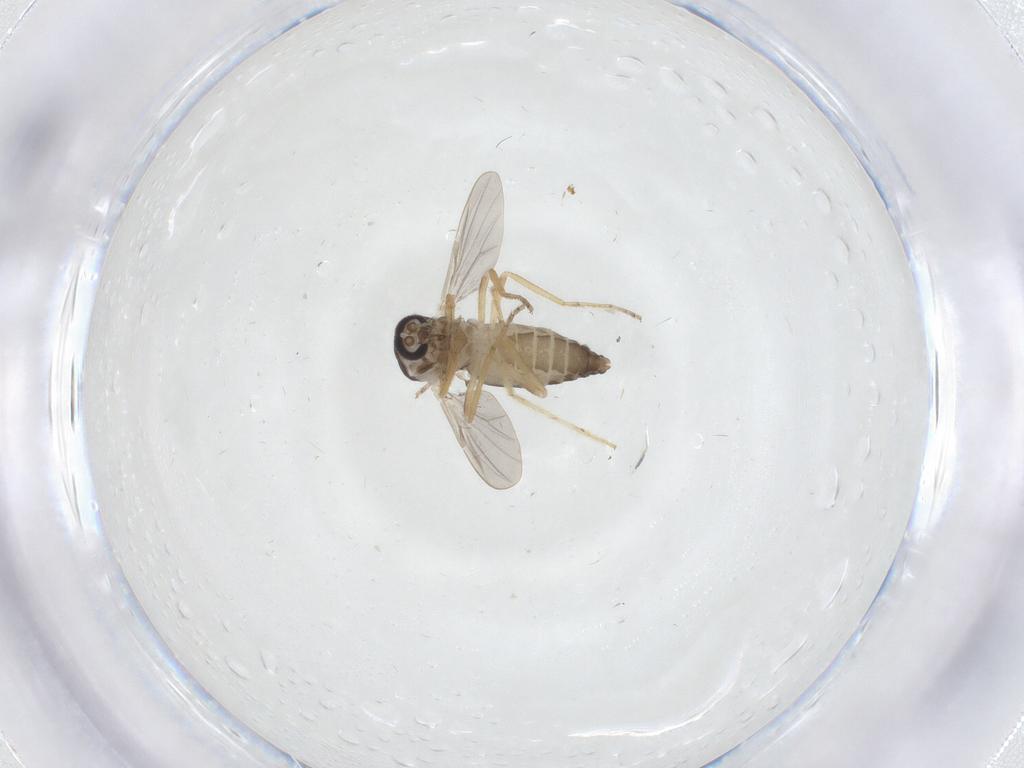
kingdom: Animalia
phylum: Arthropoda
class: Insecta
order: Diptera
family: Ceratopogonidae
